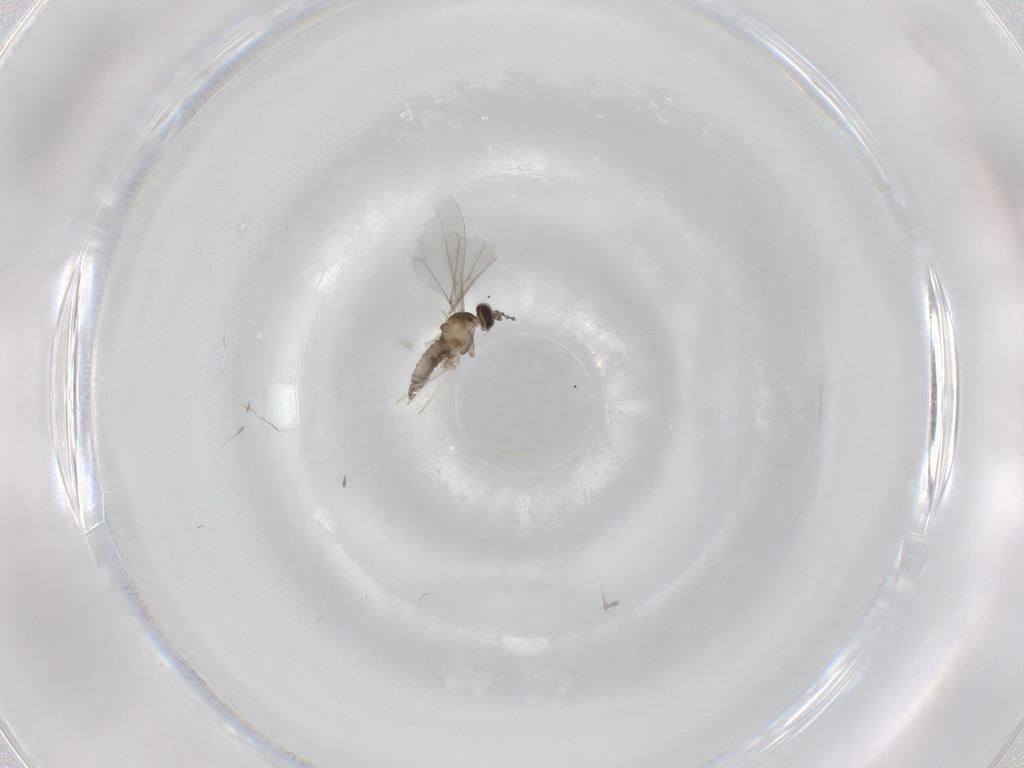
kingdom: Animalia
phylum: Arthropoda
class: Insecta
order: Diptera
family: Cecidomyiidae
